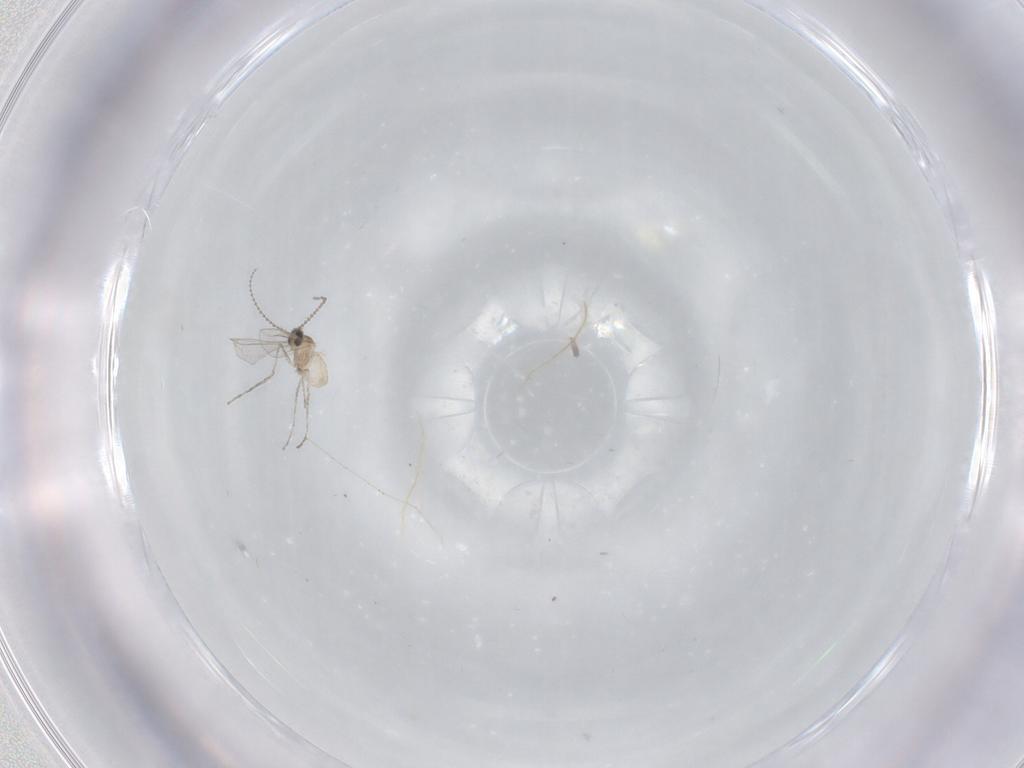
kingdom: Animalia
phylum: Arthropoda
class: Insecta
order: Diptera
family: Cecidomyiidae
